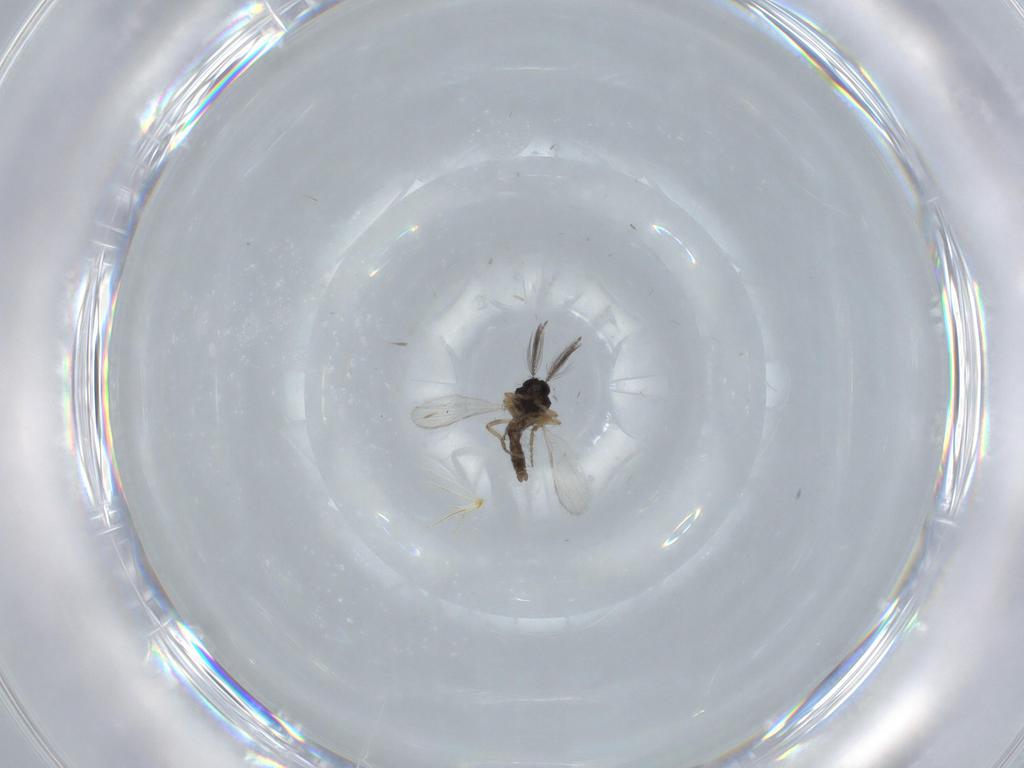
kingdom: Animalia
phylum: Arthropoda
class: Insecta
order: Diptera
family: Ceratopogonidae
